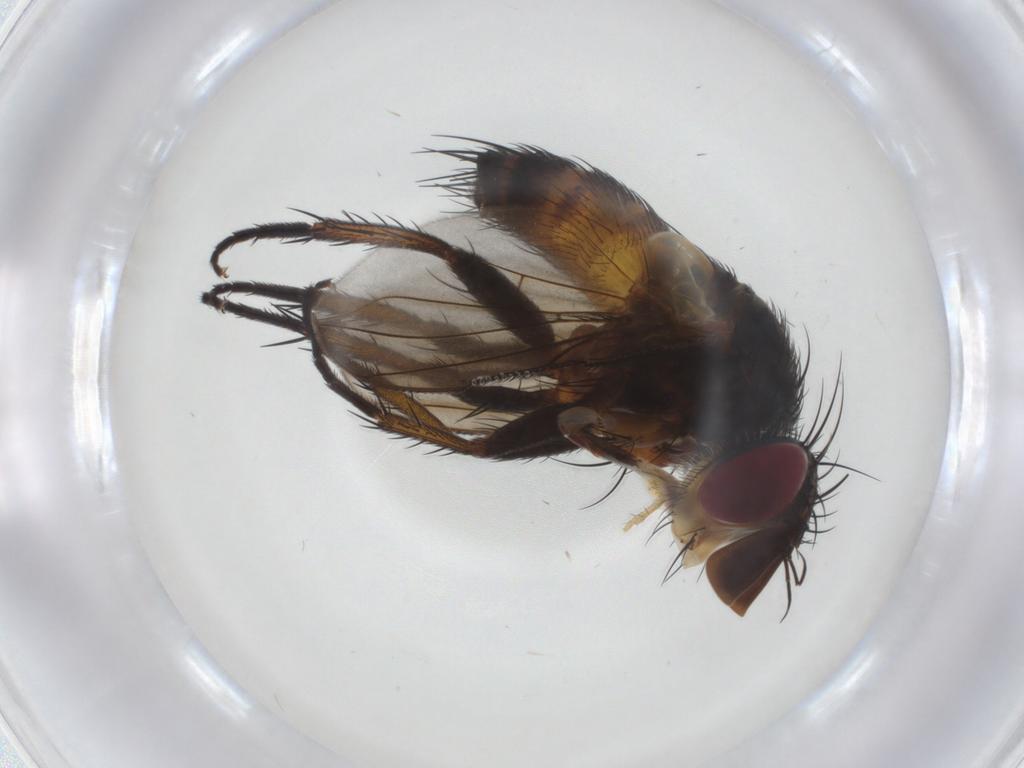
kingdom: Animalia
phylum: Arthropoda
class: Insecta
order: Diptera
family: Tachinidae
